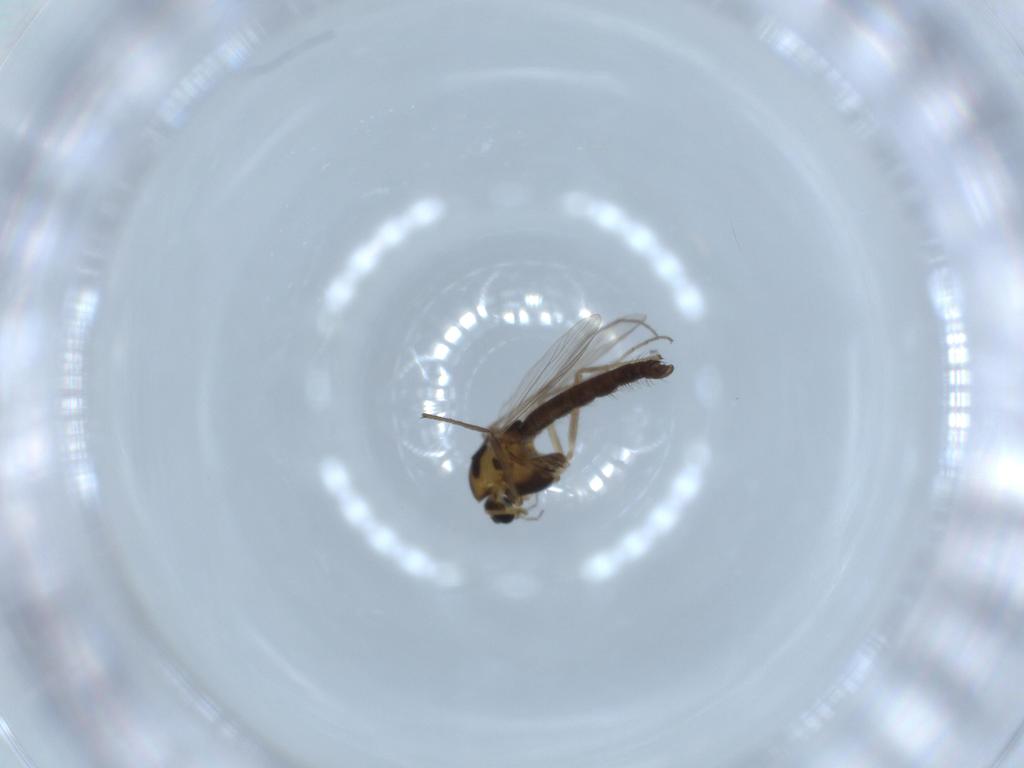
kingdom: Animalia
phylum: Arthropoda
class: Insecta
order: Diptera
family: Chironomidae
